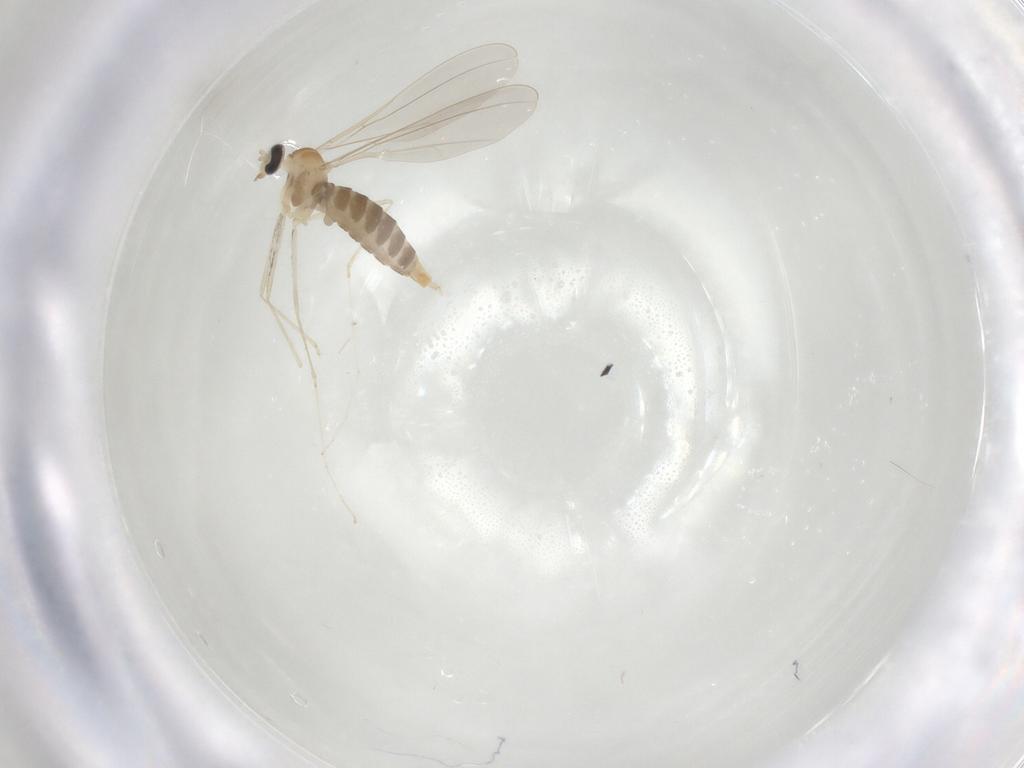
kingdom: Animalia
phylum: Arthropoda
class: Insecta
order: Diptera
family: Cecidomyiidae
